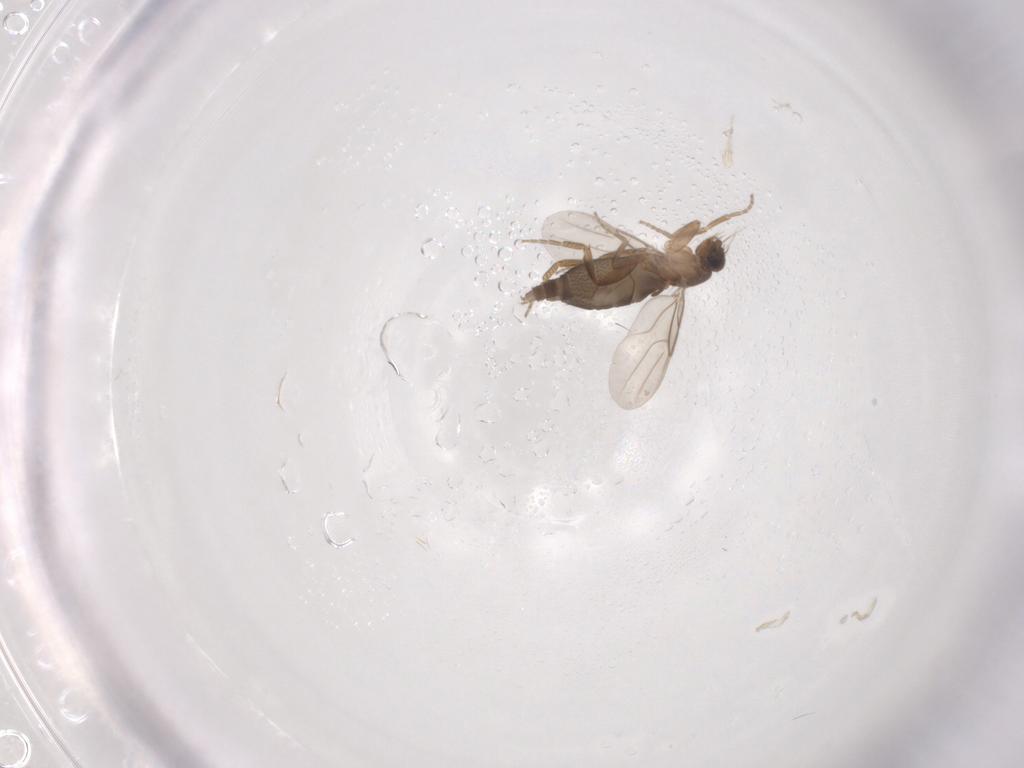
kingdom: Animalia
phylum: Arthropoda
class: Insecta
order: Diptera
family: Phoridae
